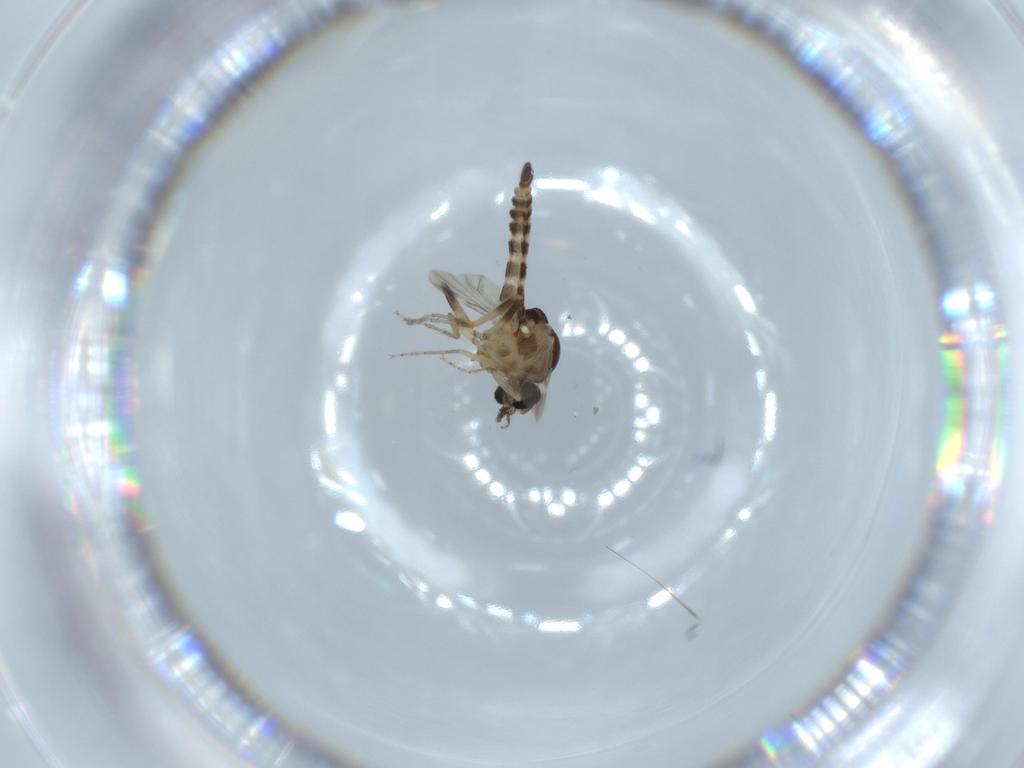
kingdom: Animalia
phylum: Arthropoda
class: Insecta
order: Diptera
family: Ceratopogonidae
